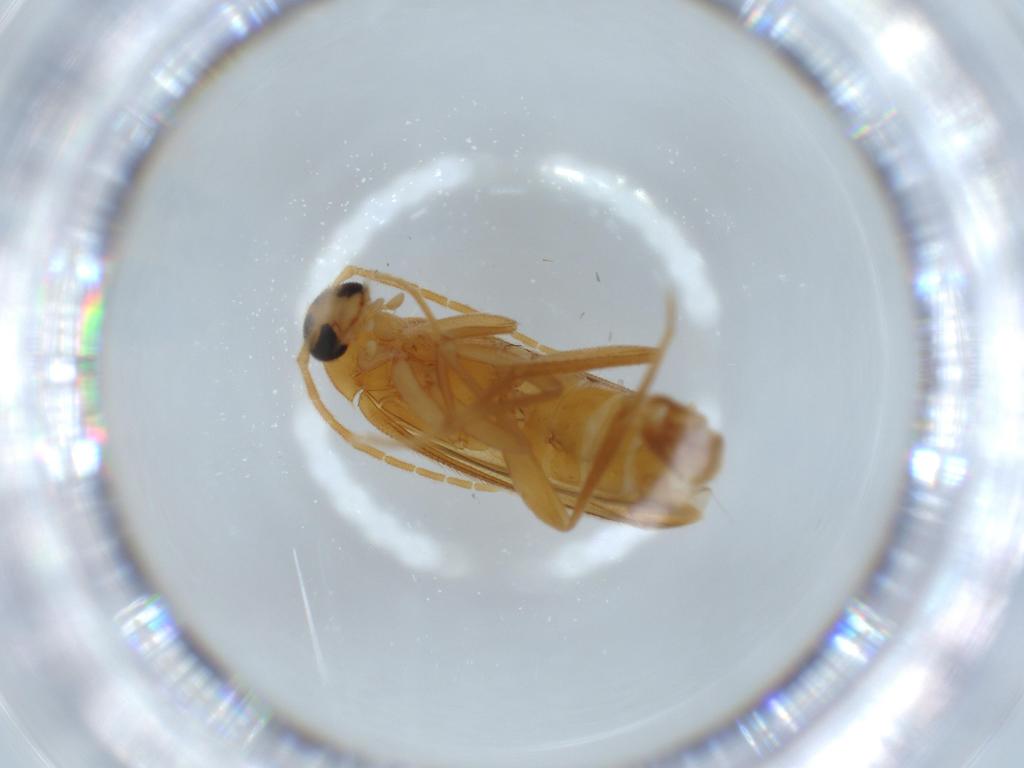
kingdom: Animalia
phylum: Arthropoda
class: Insecta
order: Coleoptera
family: Scraptiidae
